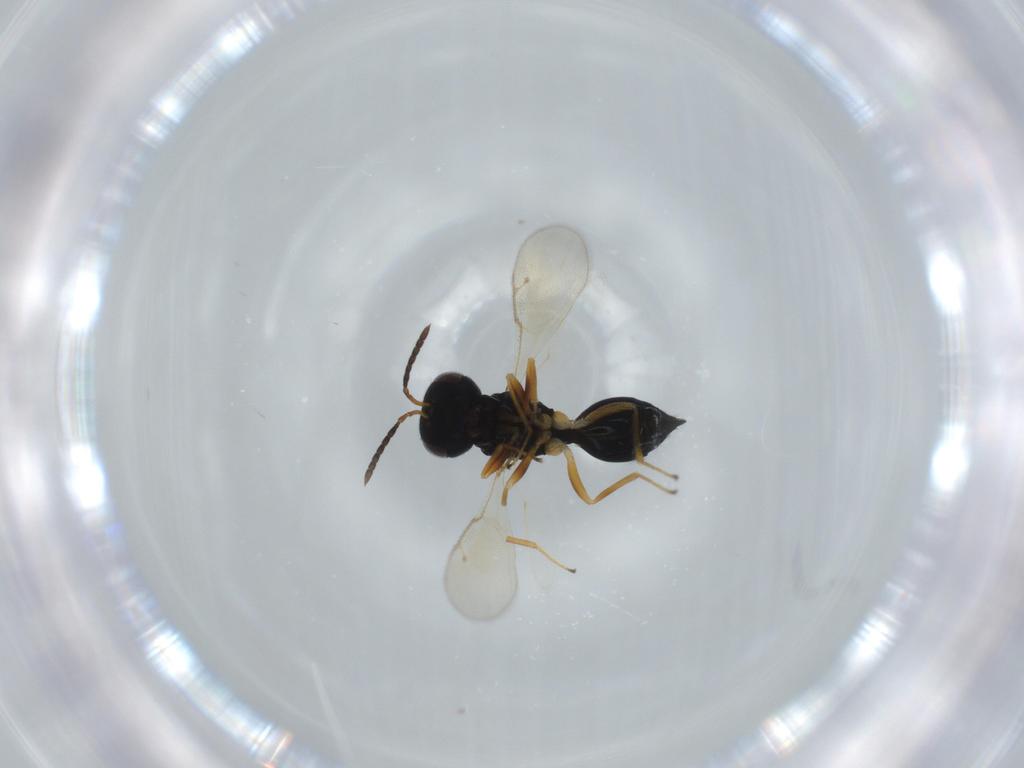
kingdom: Animalia
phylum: Arthropoda
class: Insecta
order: Hymenoptera
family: Pteromalidae
